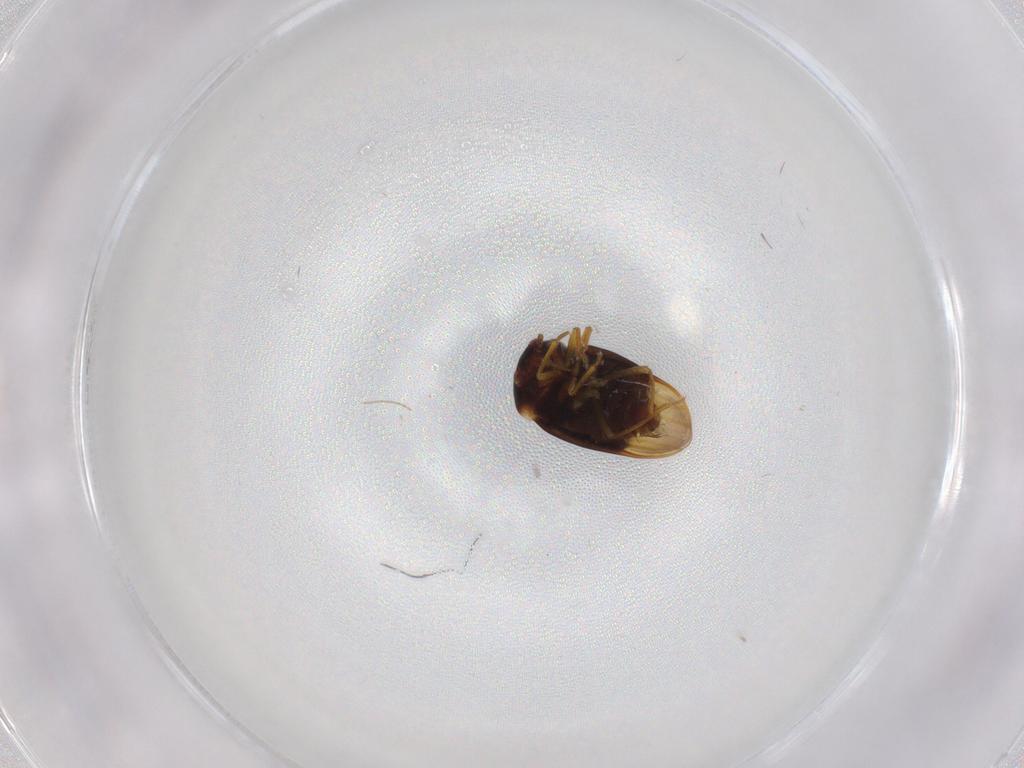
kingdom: Animalia
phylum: Arthropoda
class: Insecta
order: Hemiptera
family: Schizopteridae
